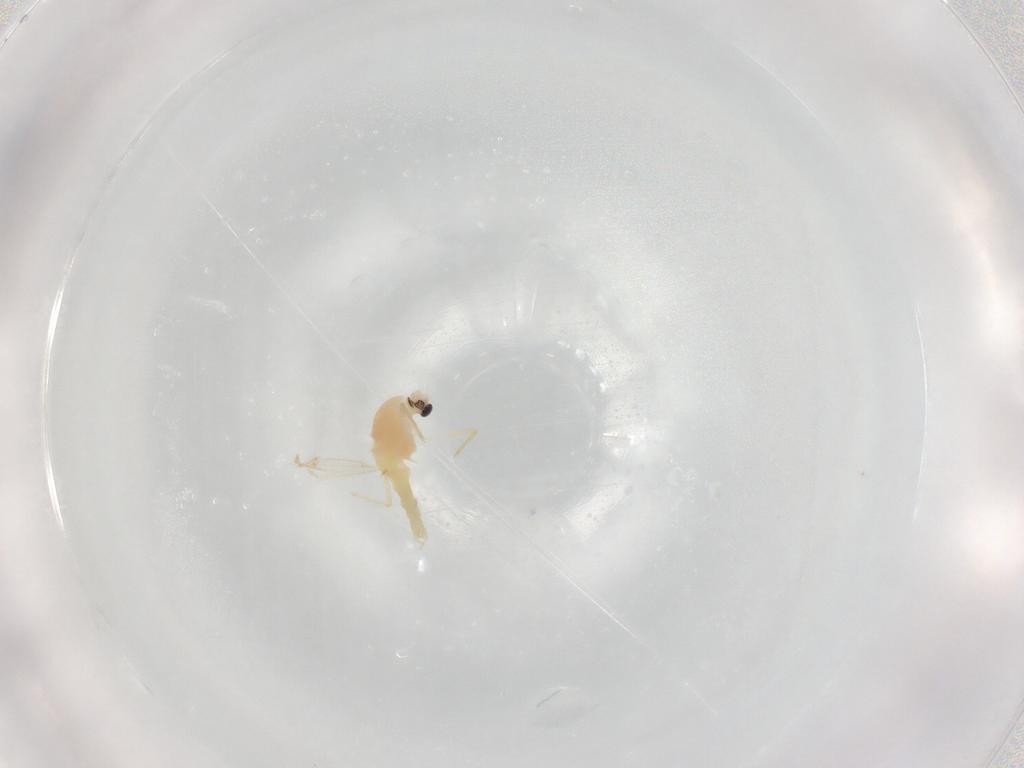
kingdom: Animalia
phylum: Arthropoda
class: Insecta
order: Diptera
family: Chironomidae
